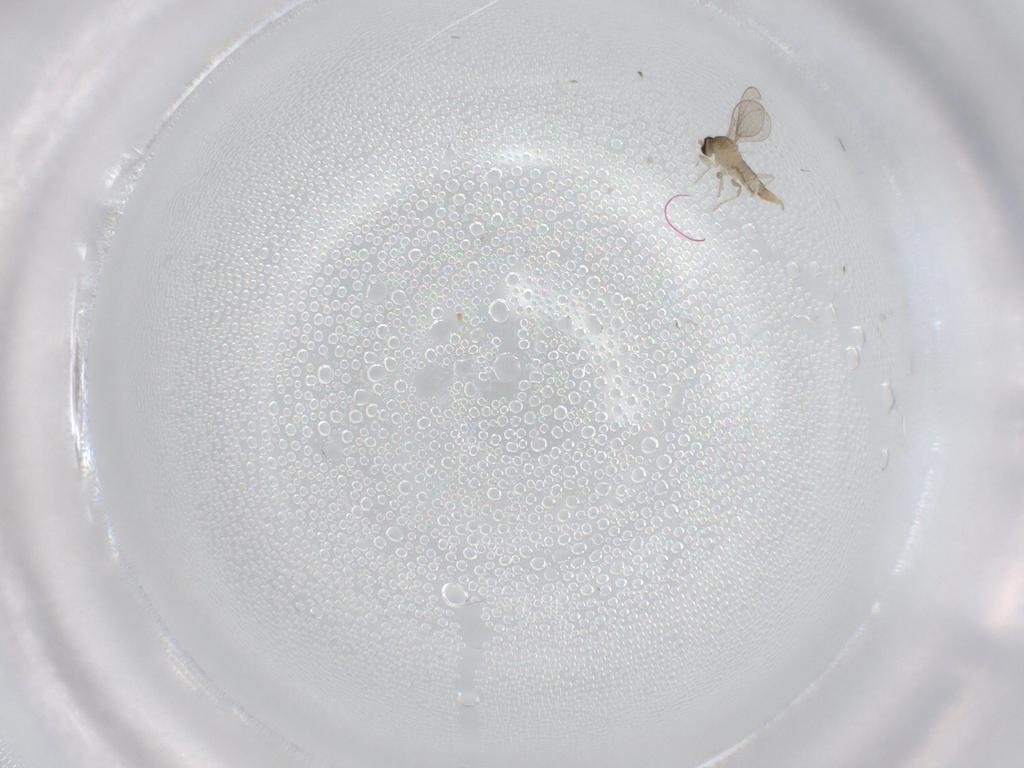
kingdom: Animalia
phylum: Arthropoda
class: Insecta
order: Diptera
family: Cecidomyiidae
